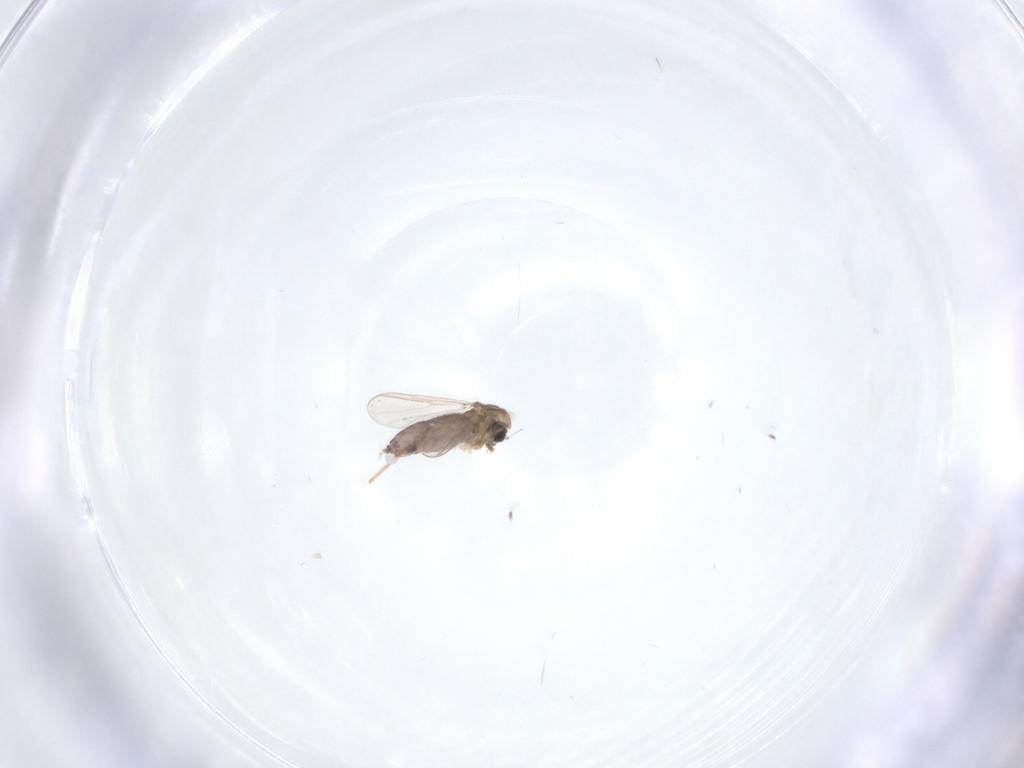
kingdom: Animalia
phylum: Arthropoda
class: Insecta
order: Diptera
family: Chironomidae
